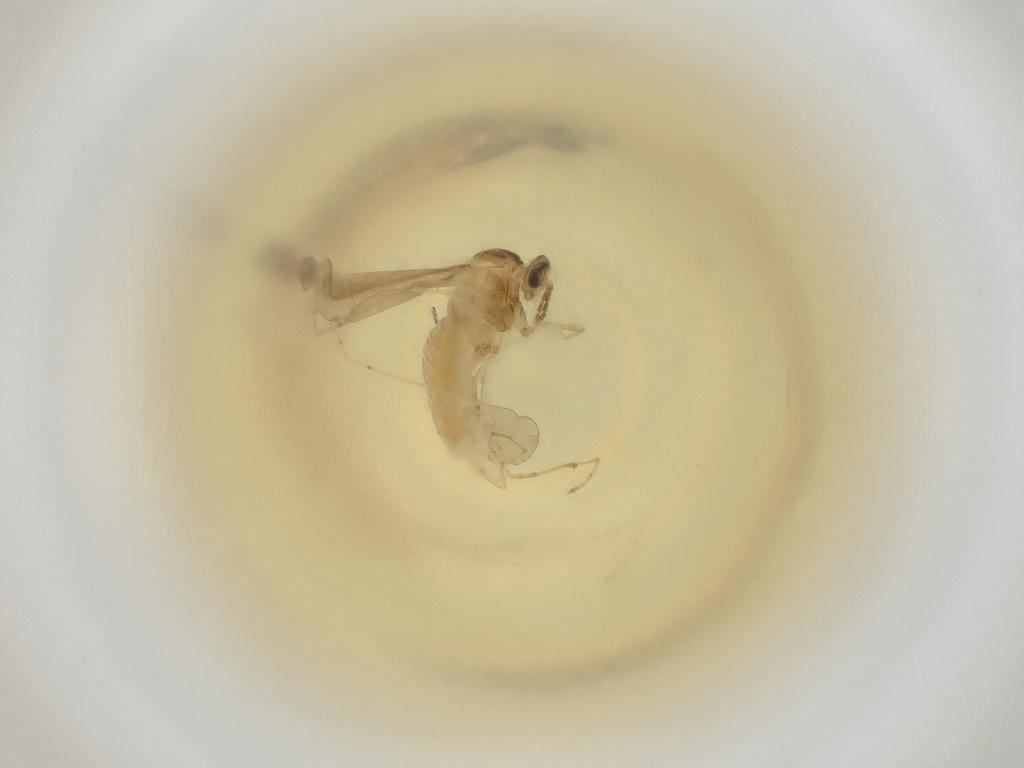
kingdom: Animalia
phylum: Arthropoda
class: Insecta
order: Diptera
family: Cecidomyiidae
